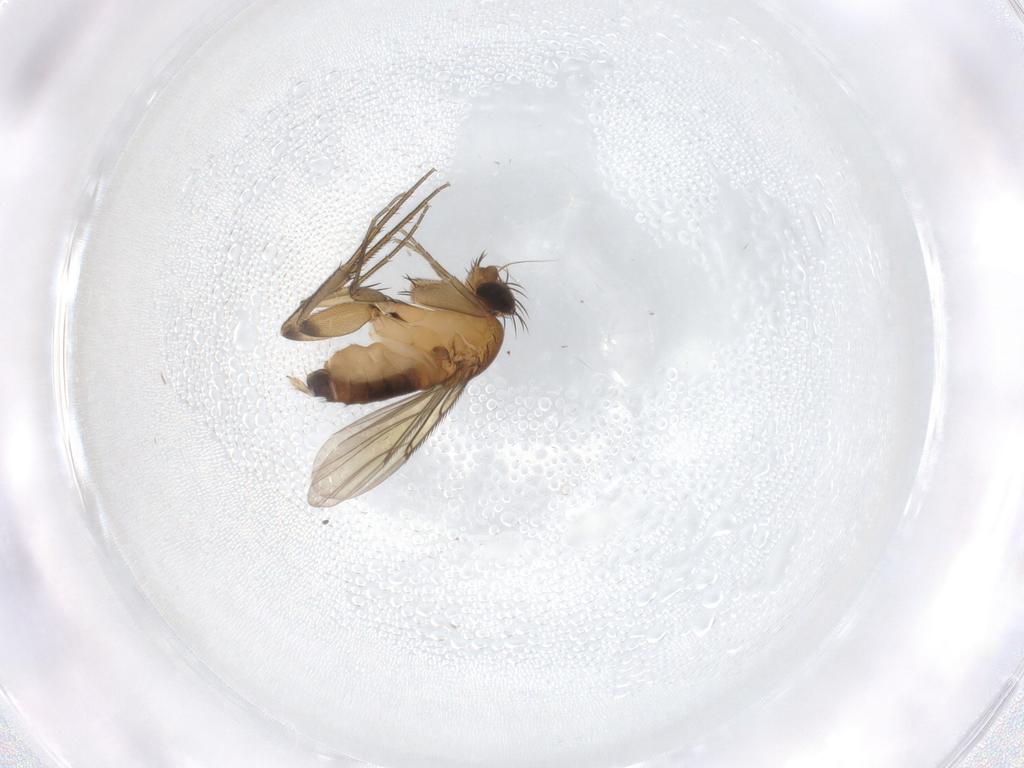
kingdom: Animalia
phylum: Arthropoda
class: Insecta
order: Diptera
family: Phoridae
